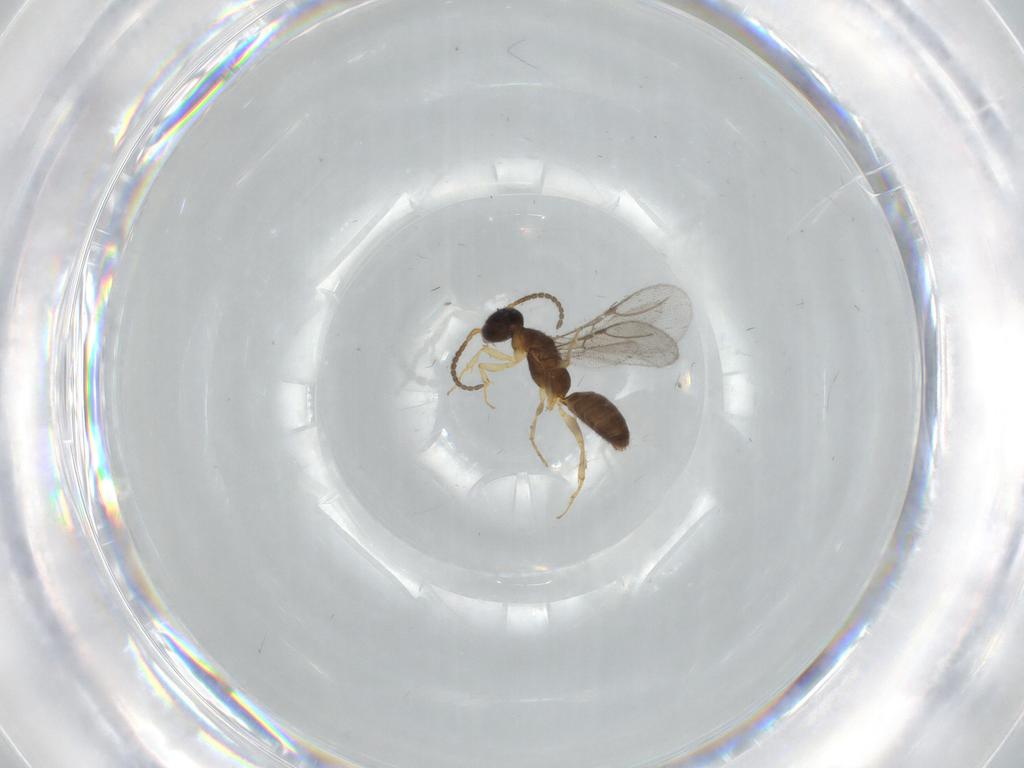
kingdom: Animalia
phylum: Arthropoda
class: Insecta
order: Hymenoptera
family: Bethylidae
